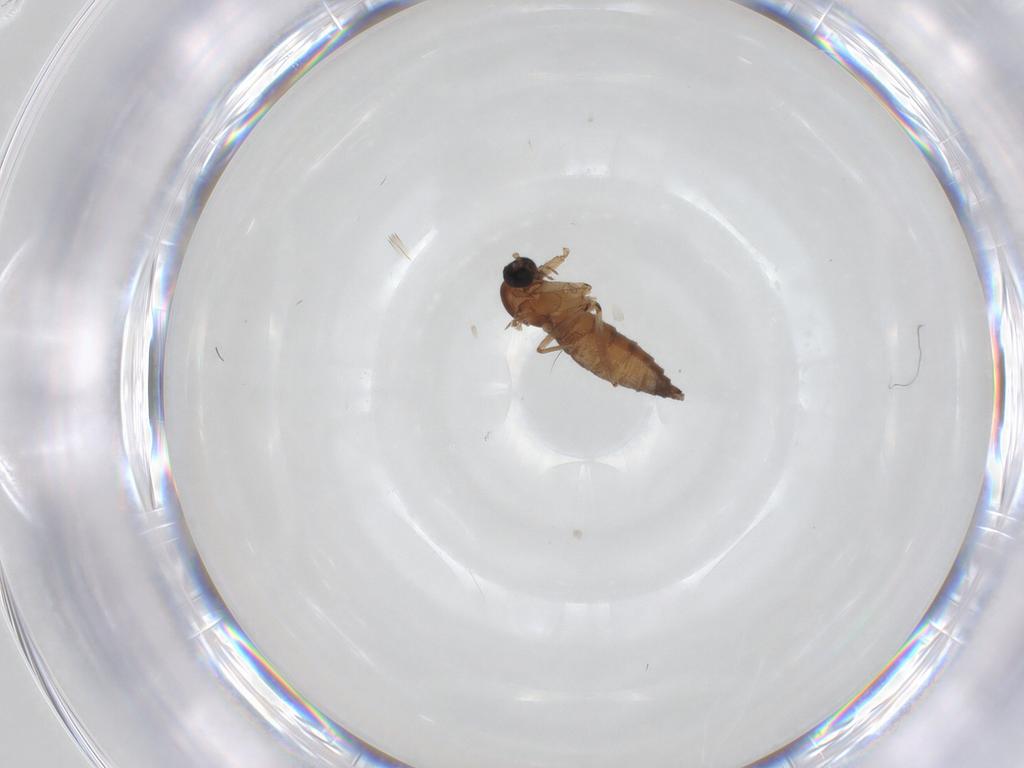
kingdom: Animalia
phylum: Arthropoda
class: Insecta
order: Diptera
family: Sciaridae
